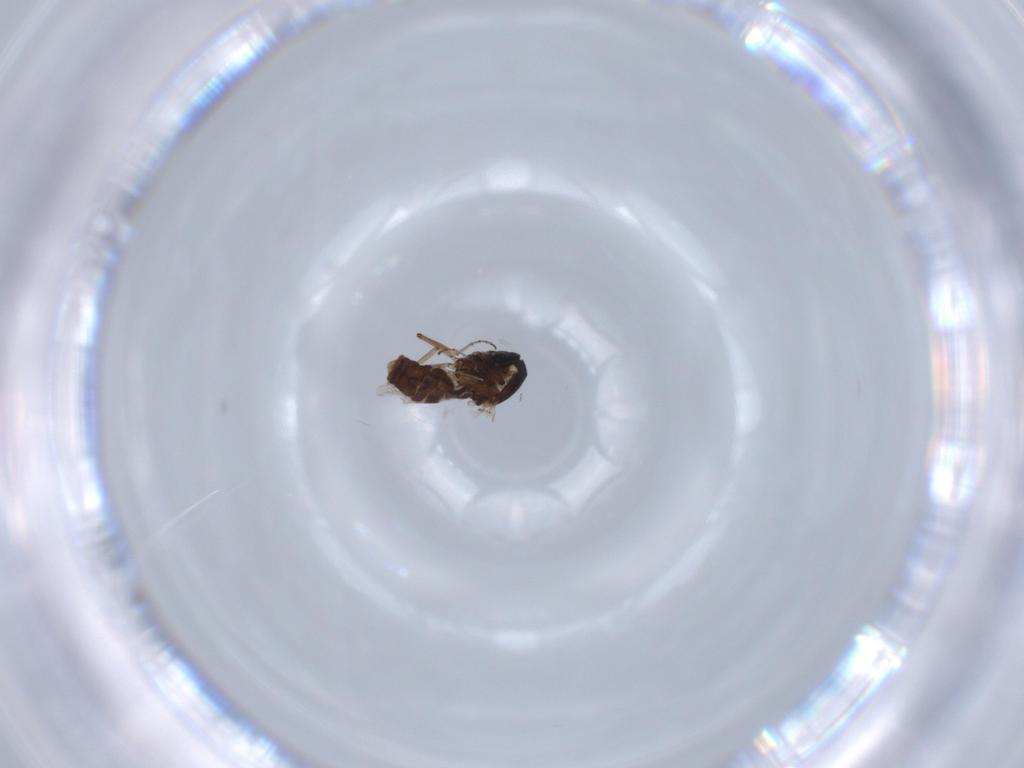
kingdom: Animalia
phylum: Arthropoda
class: Insecta
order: Diptera
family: Ceratopogonidae
